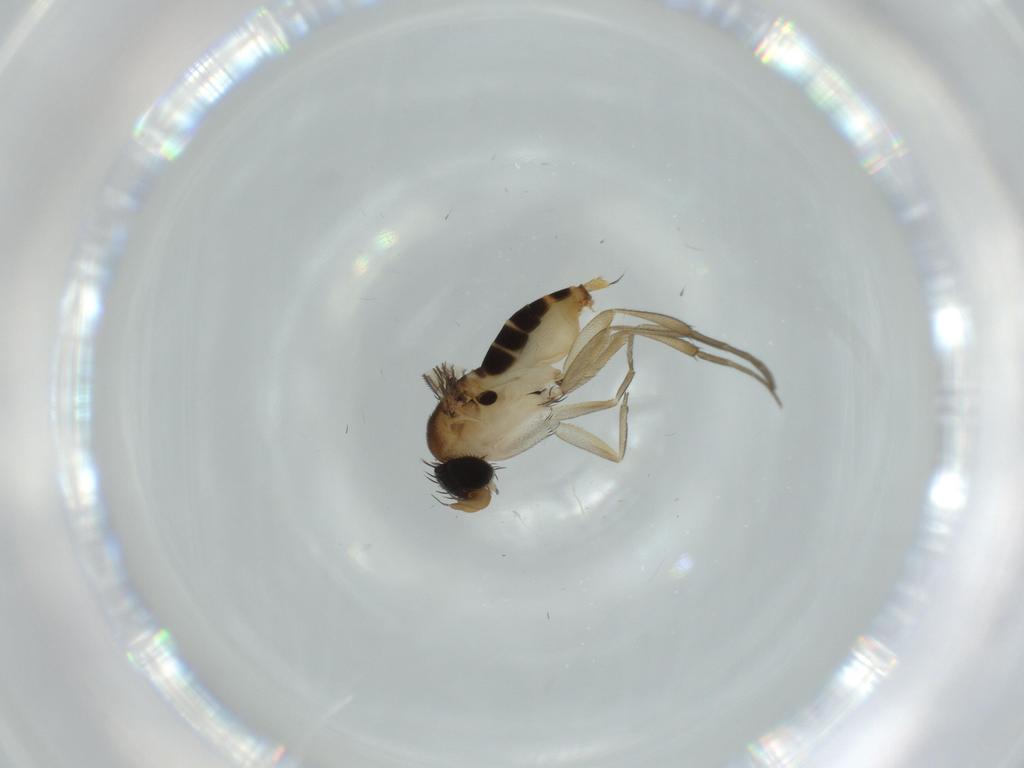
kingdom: Animalia
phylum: Arthropoda
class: Insecta
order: Diptera
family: Phoridae
